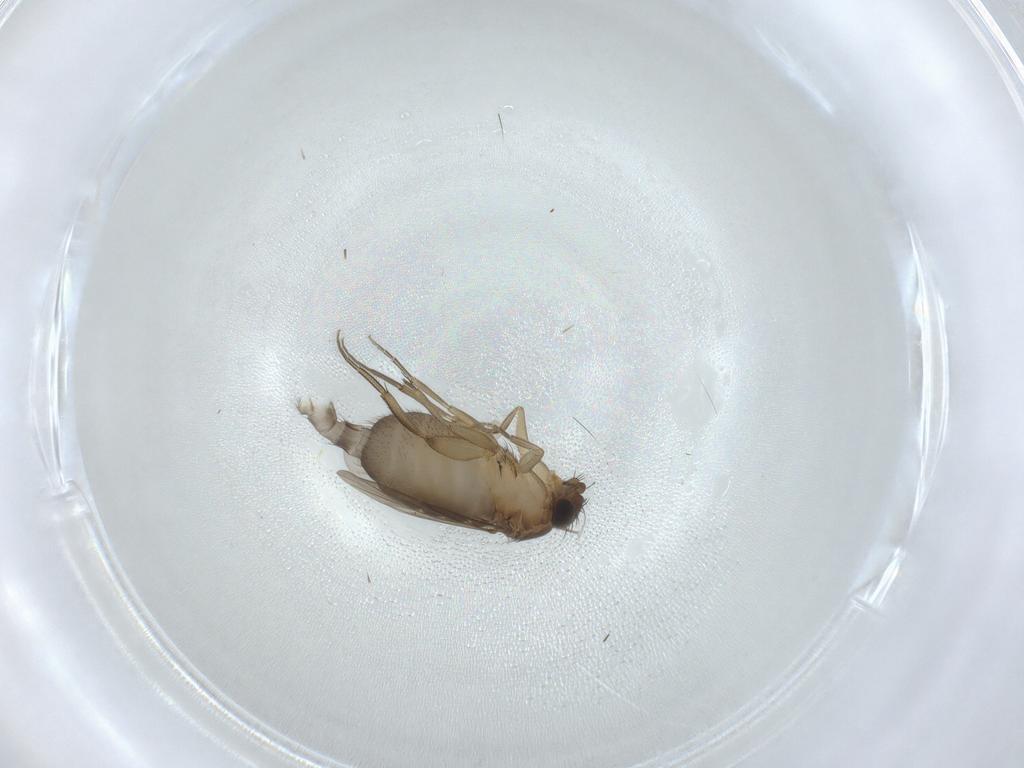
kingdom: Animalia
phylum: Arthropoda
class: Insecta
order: Diptera
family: Phoridae
